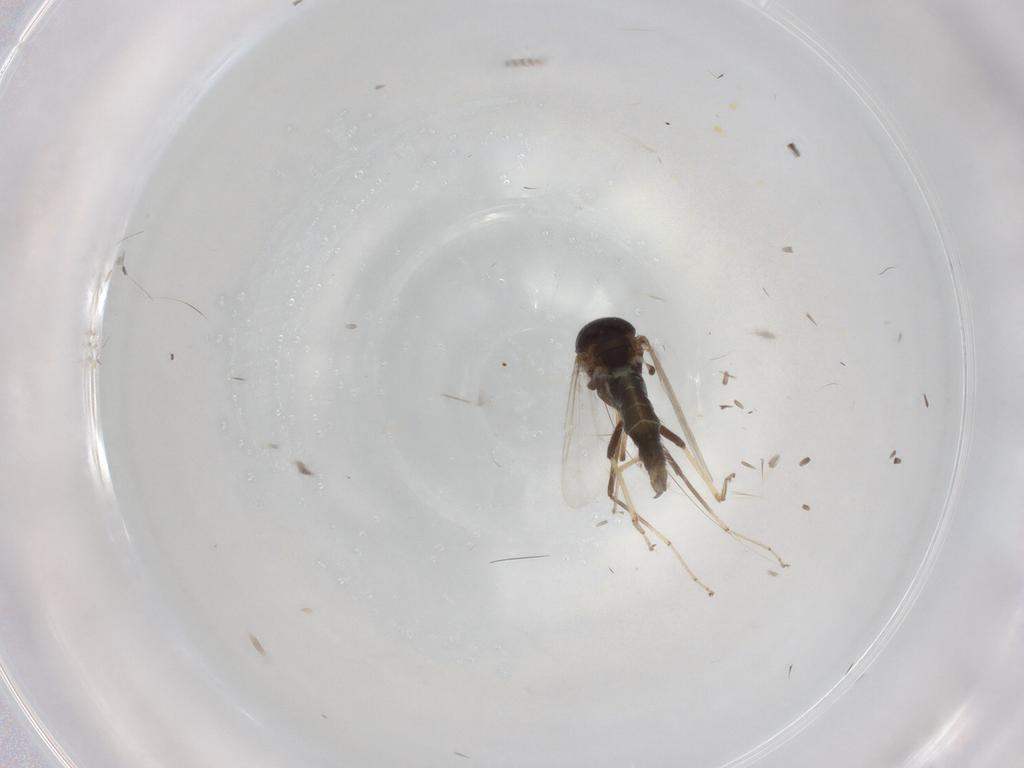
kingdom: Animalia
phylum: Arthropoda
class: Insecta
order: Diptera
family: Ceratopogonidae
